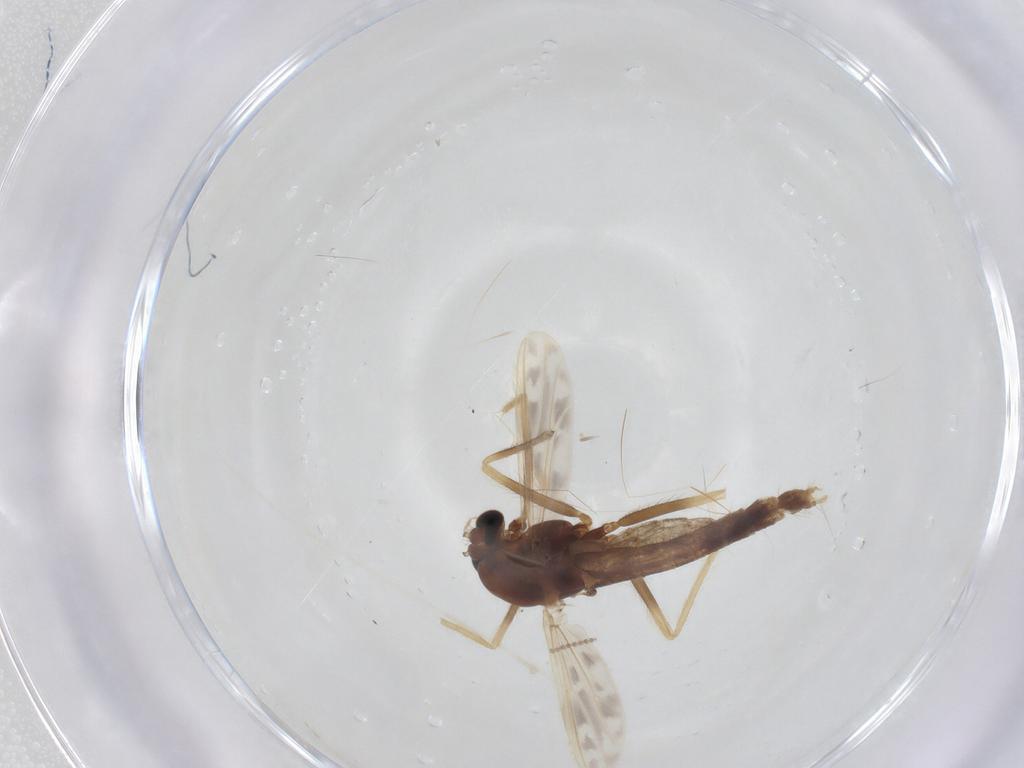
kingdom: Animalia
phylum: Arthropoda
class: Insecta
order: Diptera
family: Chironomidae
